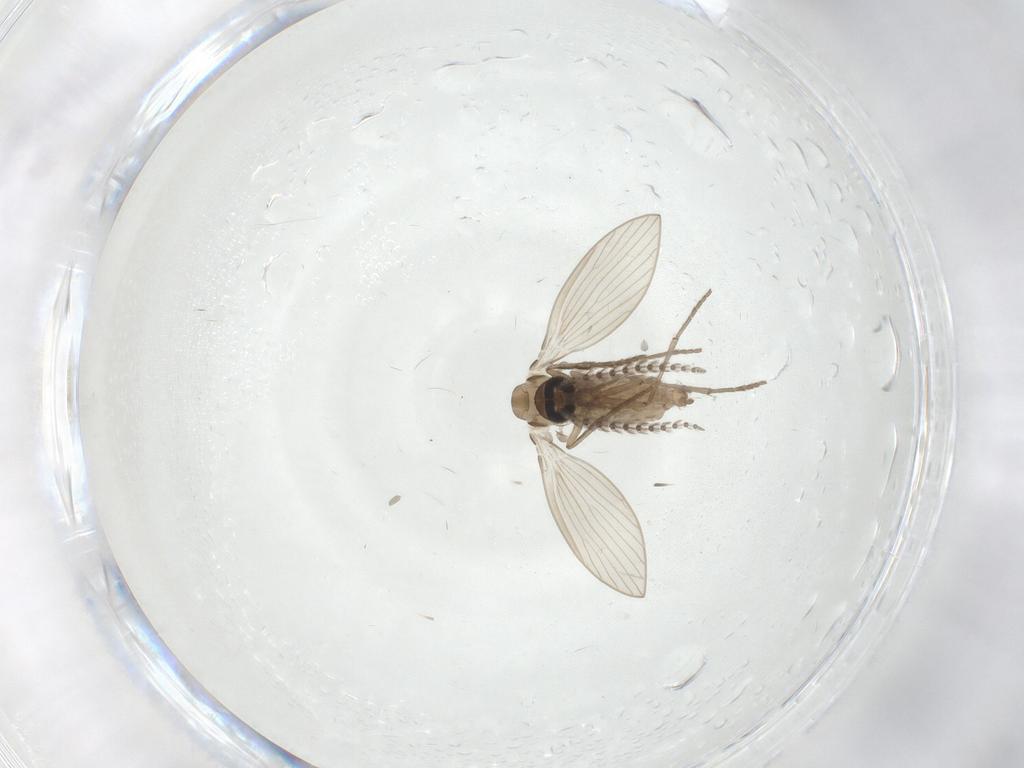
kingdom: Animalia
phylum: Arthropoda
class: Insecta
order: Diptera
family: Psychodidae
